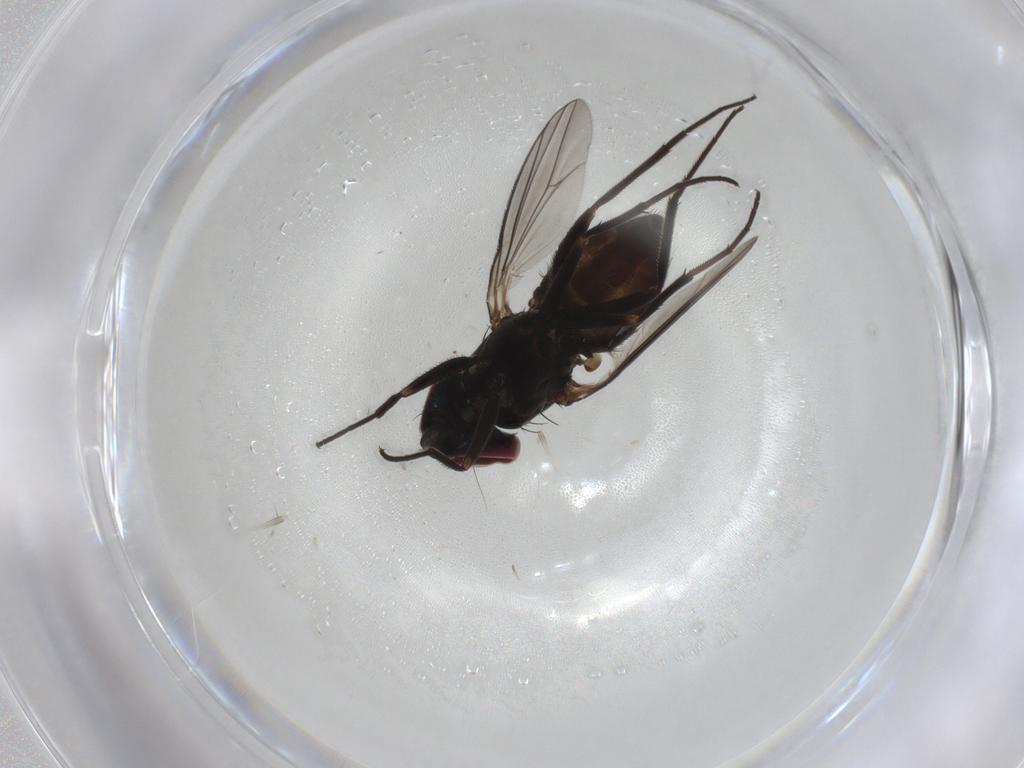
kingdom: Animalia
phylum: Arthropoda
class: Insecta
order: Diptera
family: Dolichopodidae
